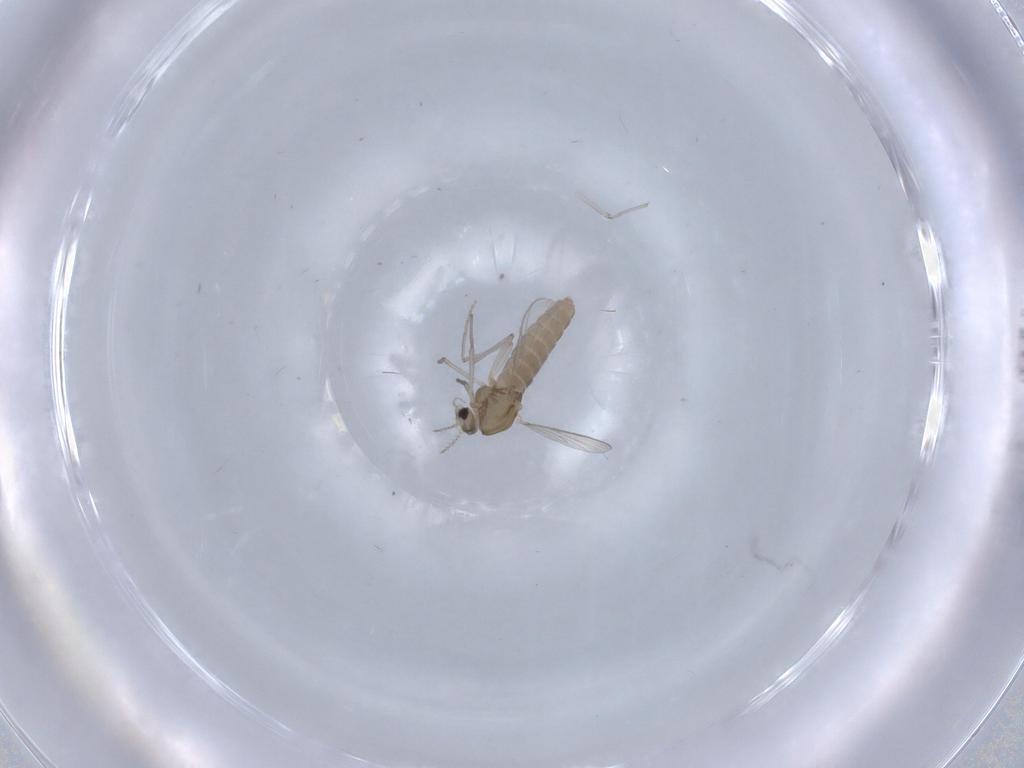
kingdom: Animalia
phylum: Arthropoda
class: Insecta
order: Diptera
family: Chironomidae
